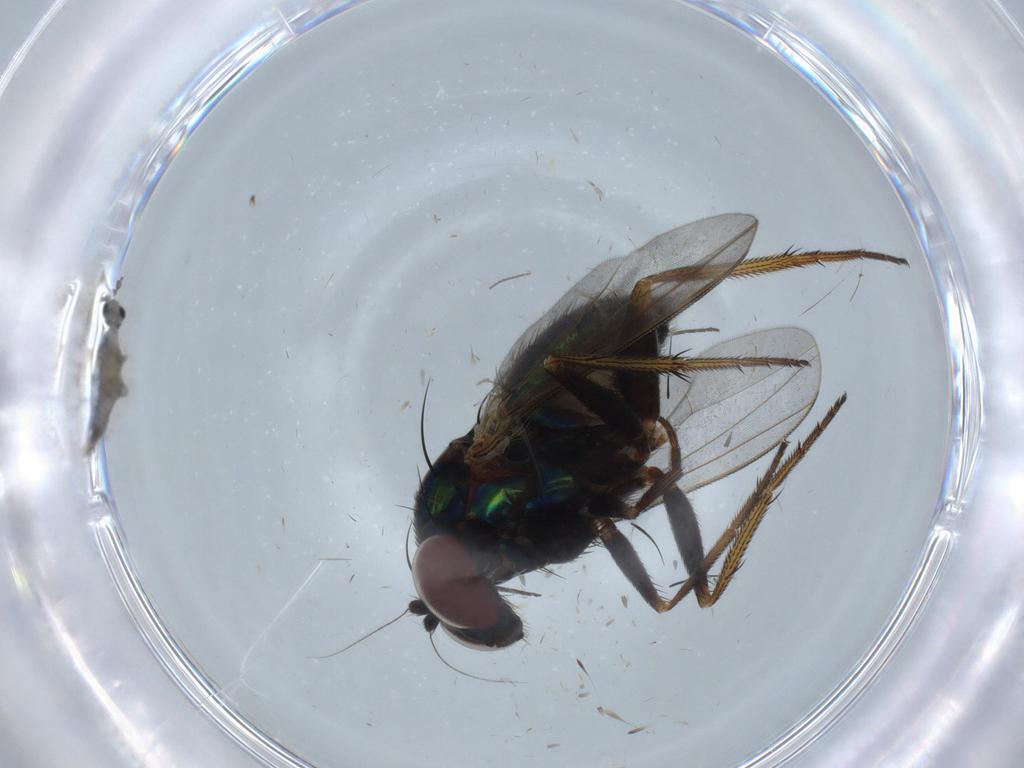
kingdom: Animalia
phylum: Arthropoda
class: Insecta
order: Diptera
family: Dolichopodidae
